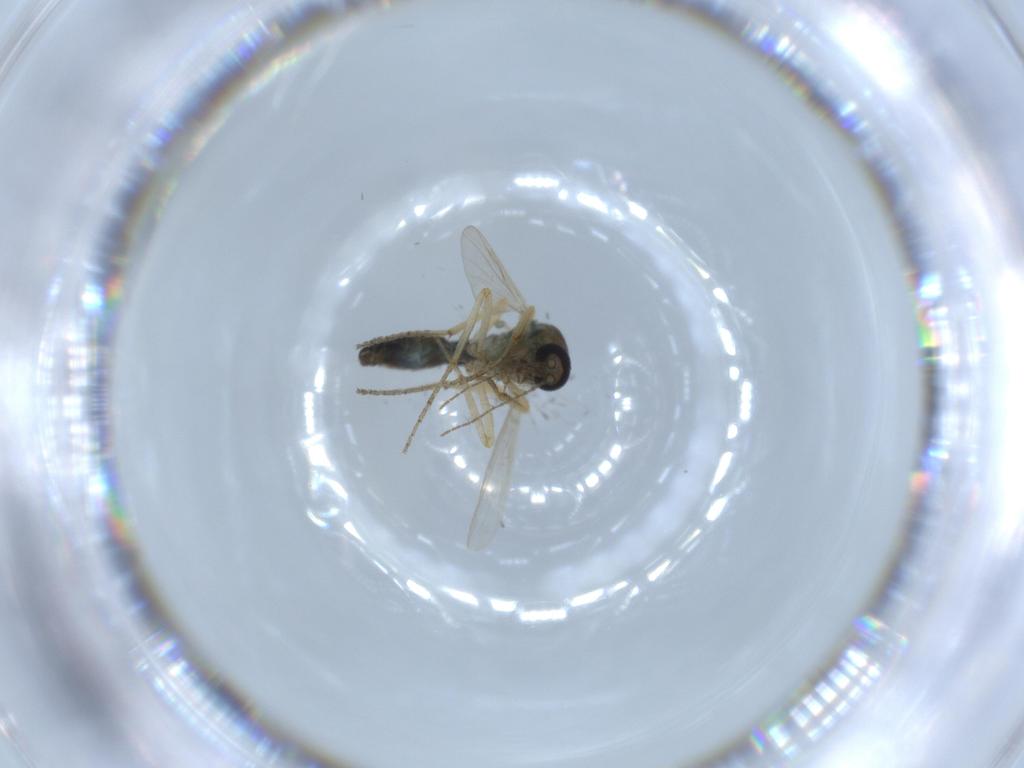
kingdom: Animalia
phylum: Arthropoda
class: Insecta
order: Diptera
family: Ceratopogonidae
